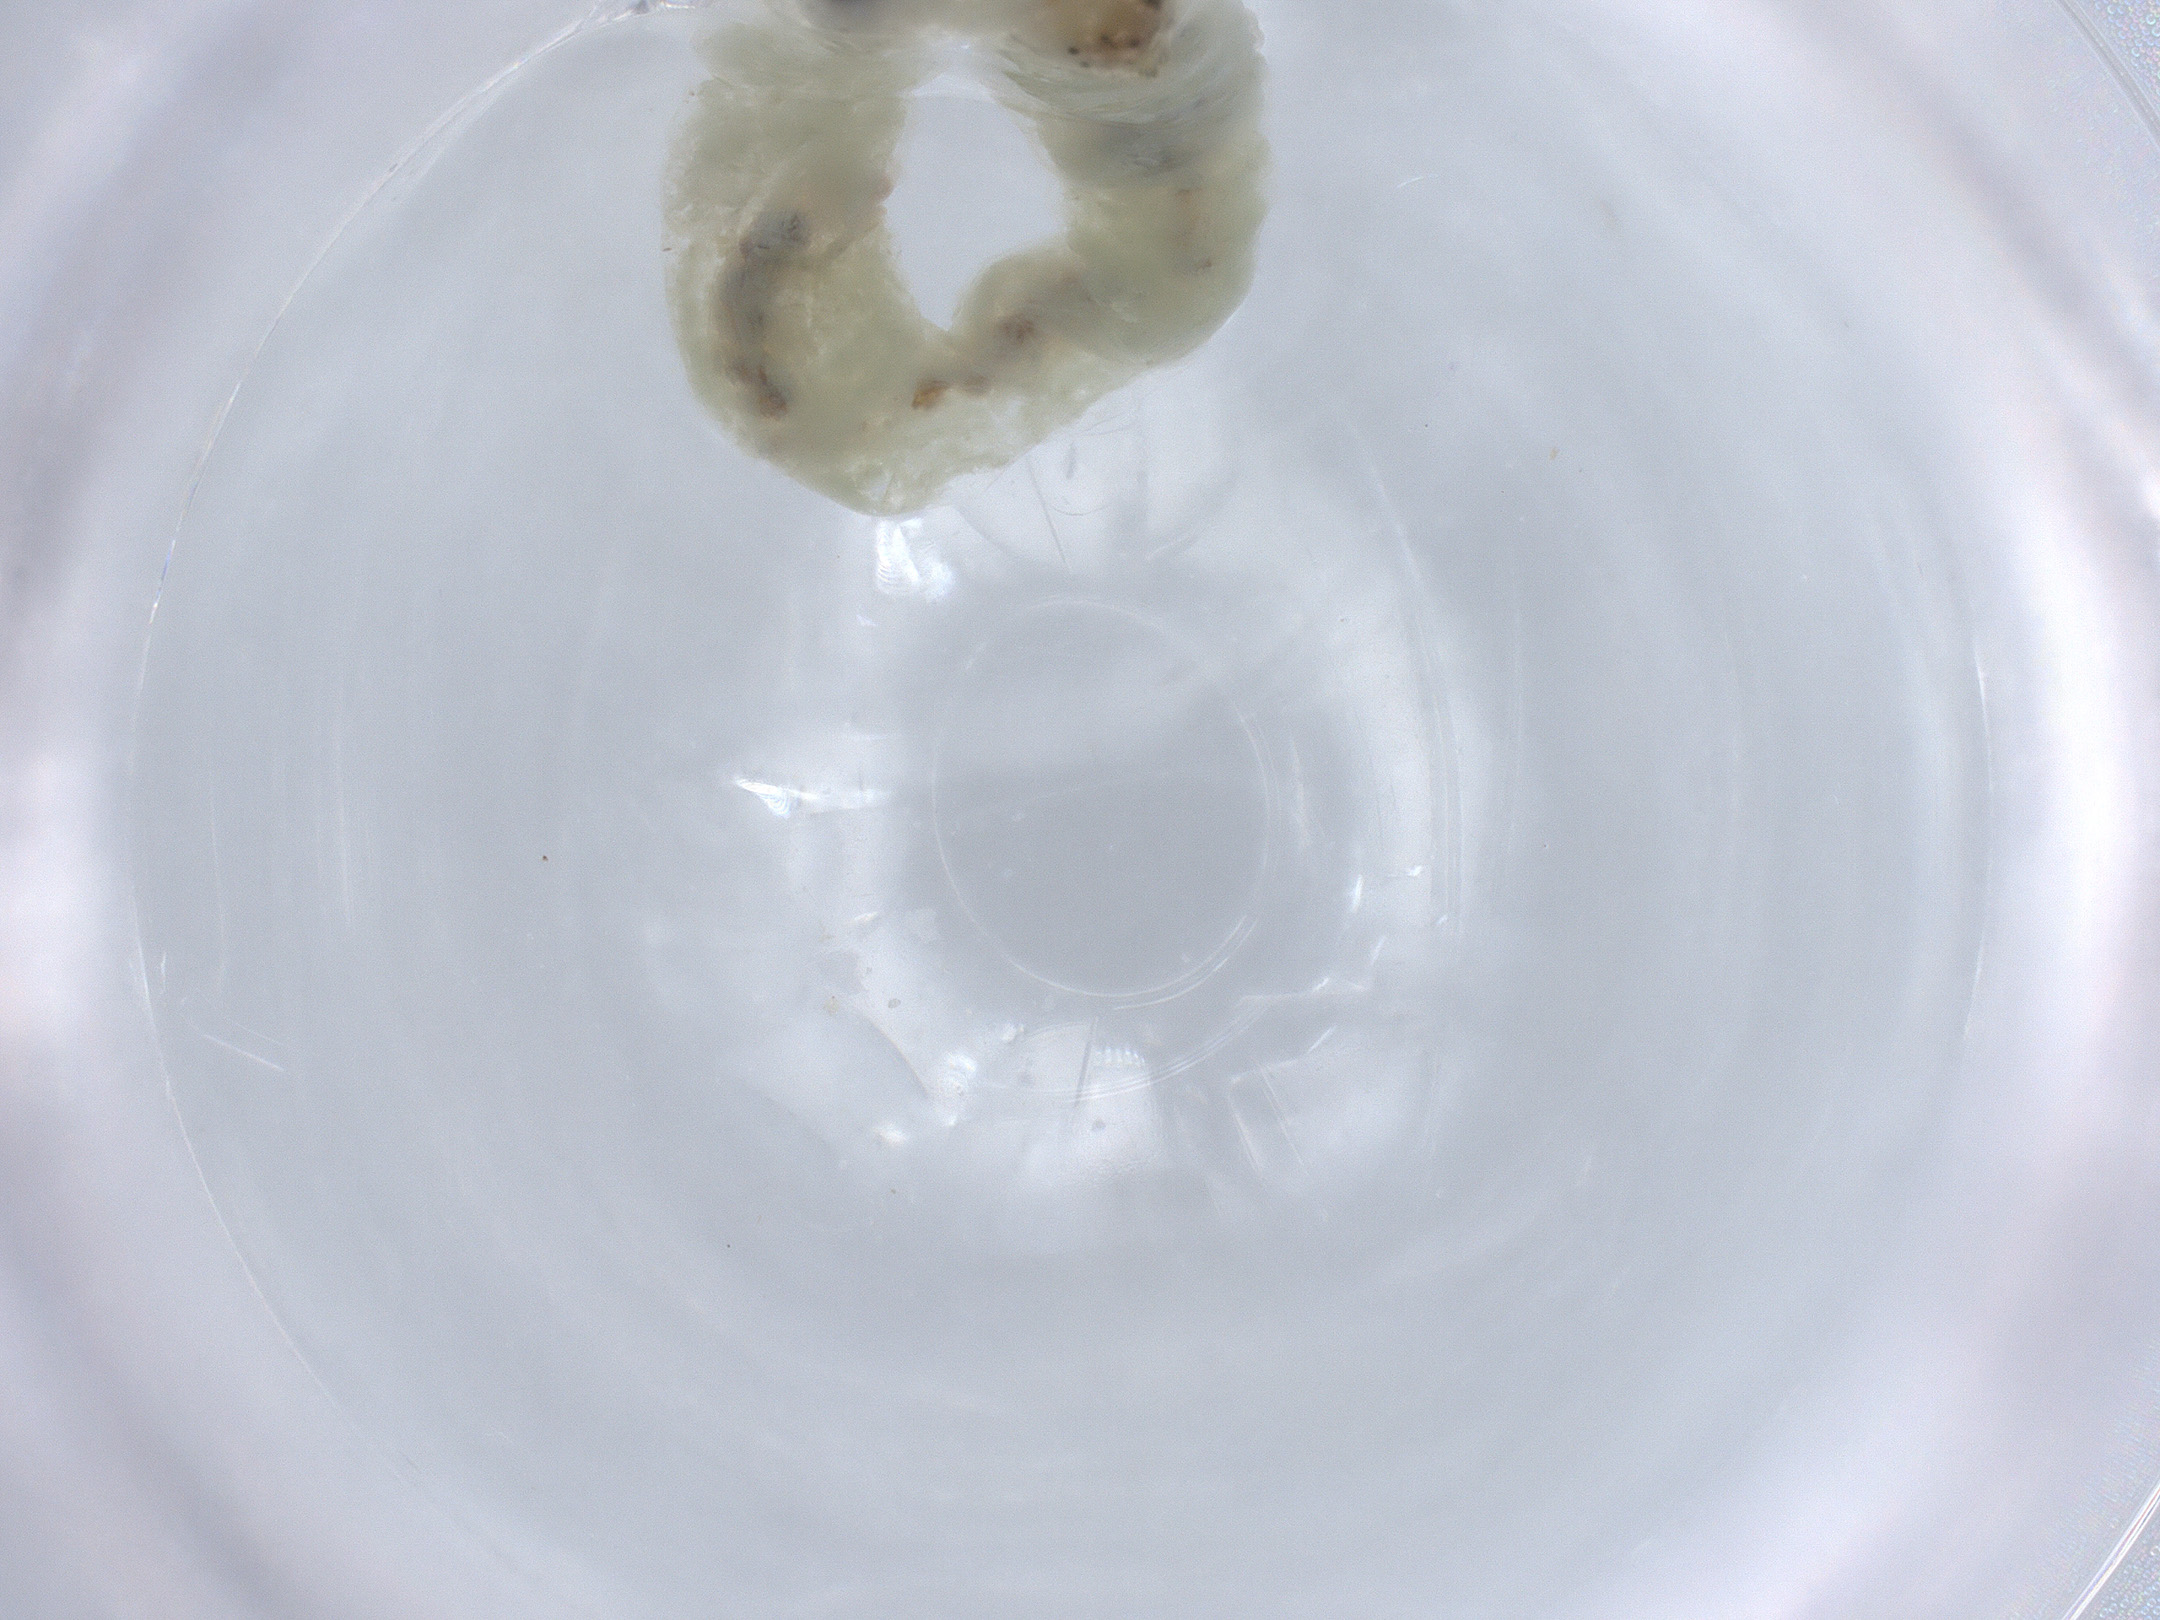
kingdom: Animalia
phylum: Arthropoda
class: Insecta
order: Diptera
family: Chironomidae
